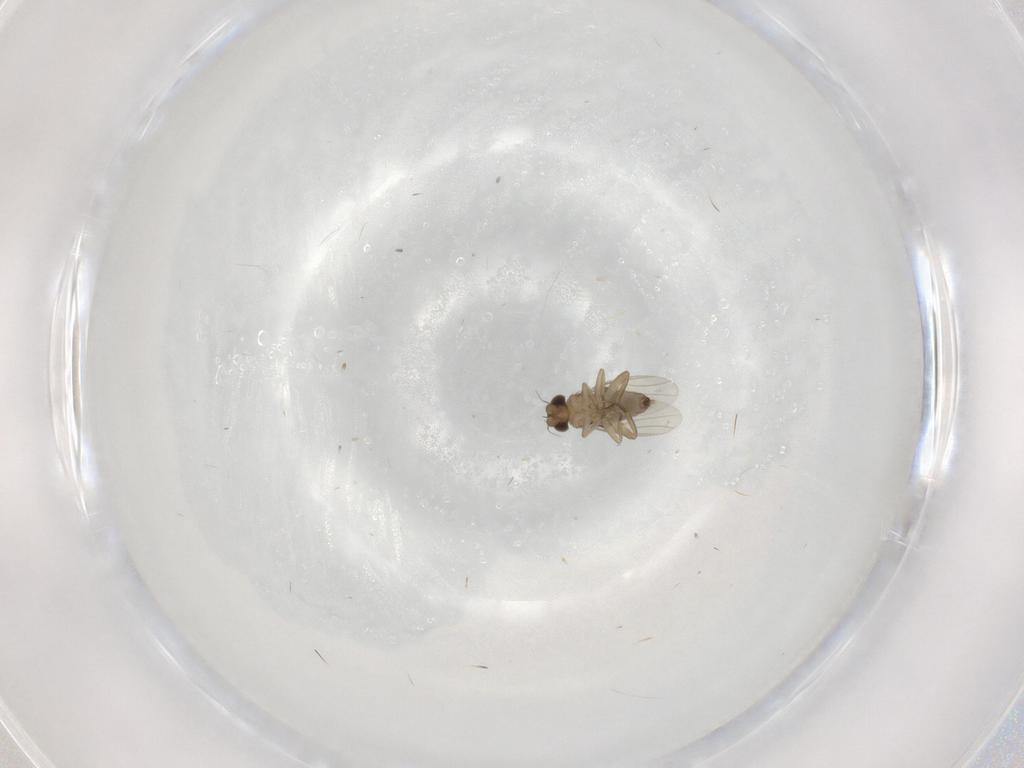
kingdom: Animalia
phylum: Arthropoda
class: Insecta
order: Diptera
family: Phoridae
